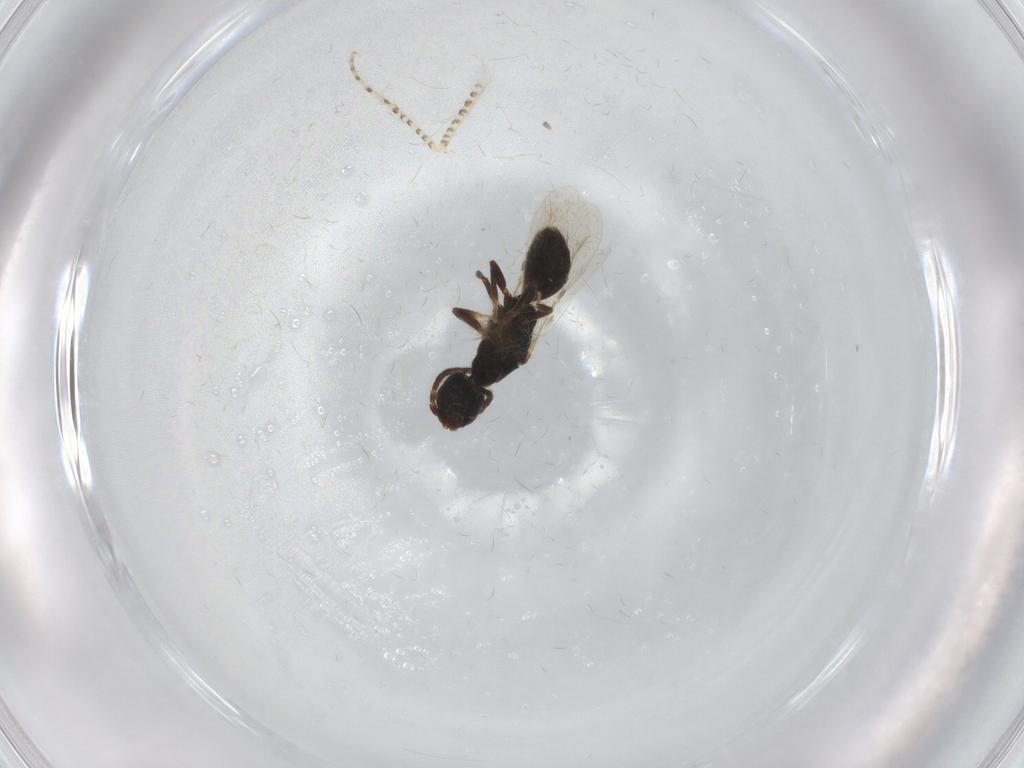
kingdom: Animalia
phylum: Arthropoda
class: Insecta
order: Hymenoptera
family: Bethylidae
